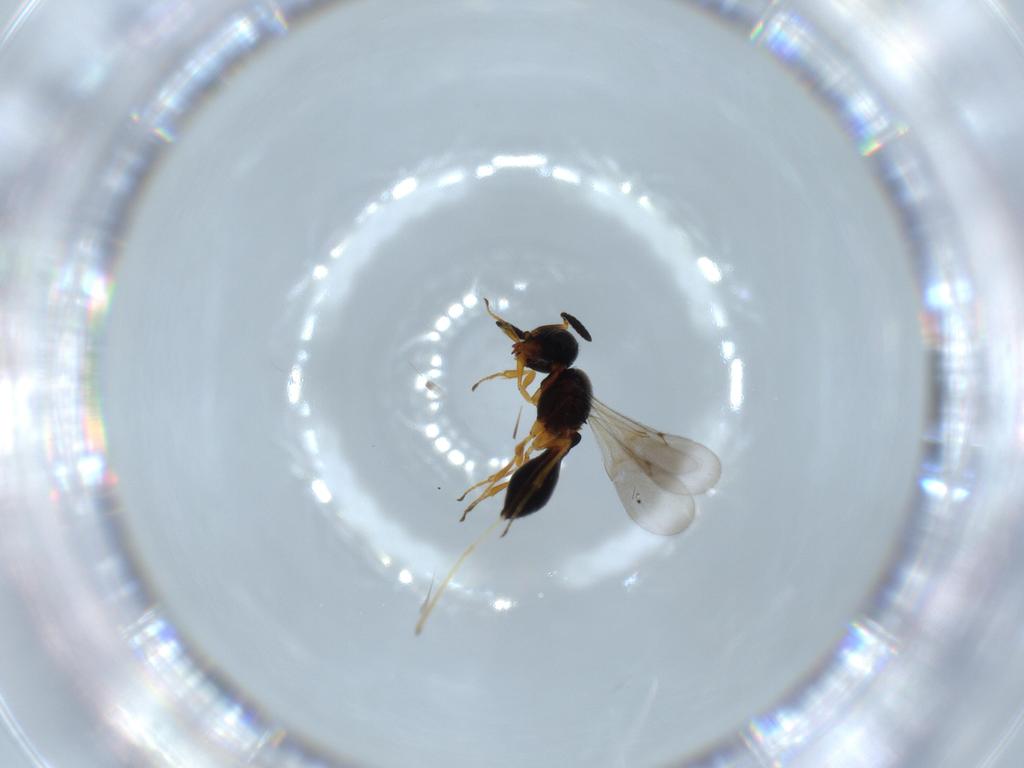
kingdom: Animalia
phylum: Arthropoda
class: Insecta
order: Hymenoptera
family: Scelionidae
